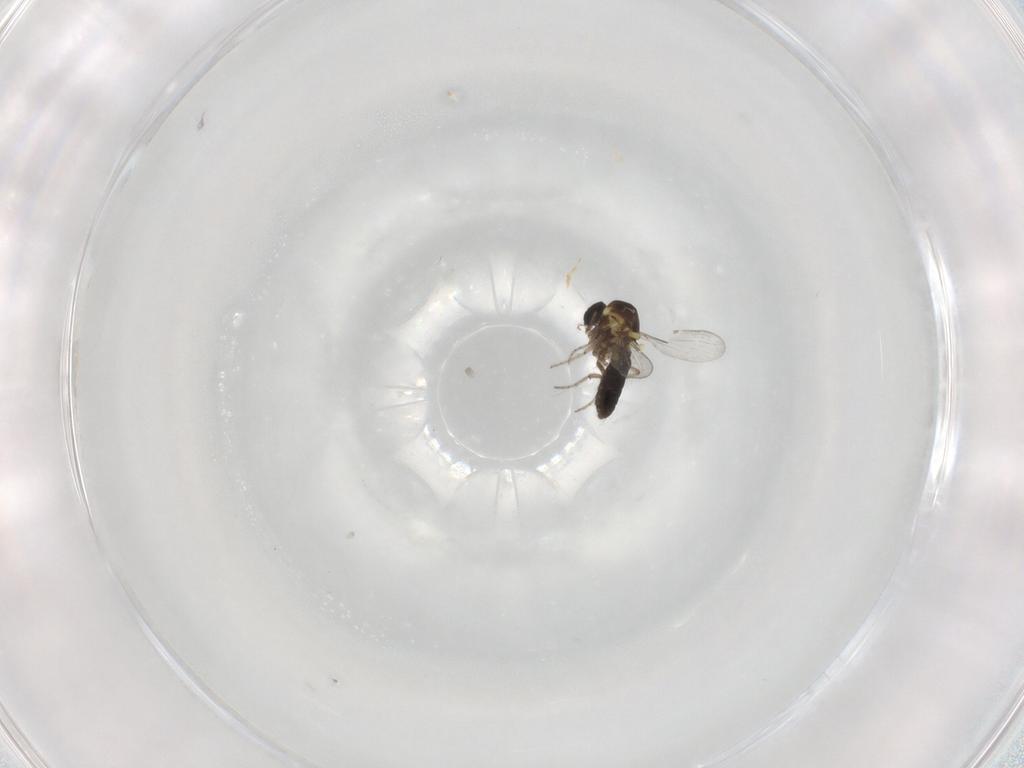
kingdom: Animalia
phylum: Arthropoda
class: Insecta
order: Diptera
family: Ceratopogonidae
